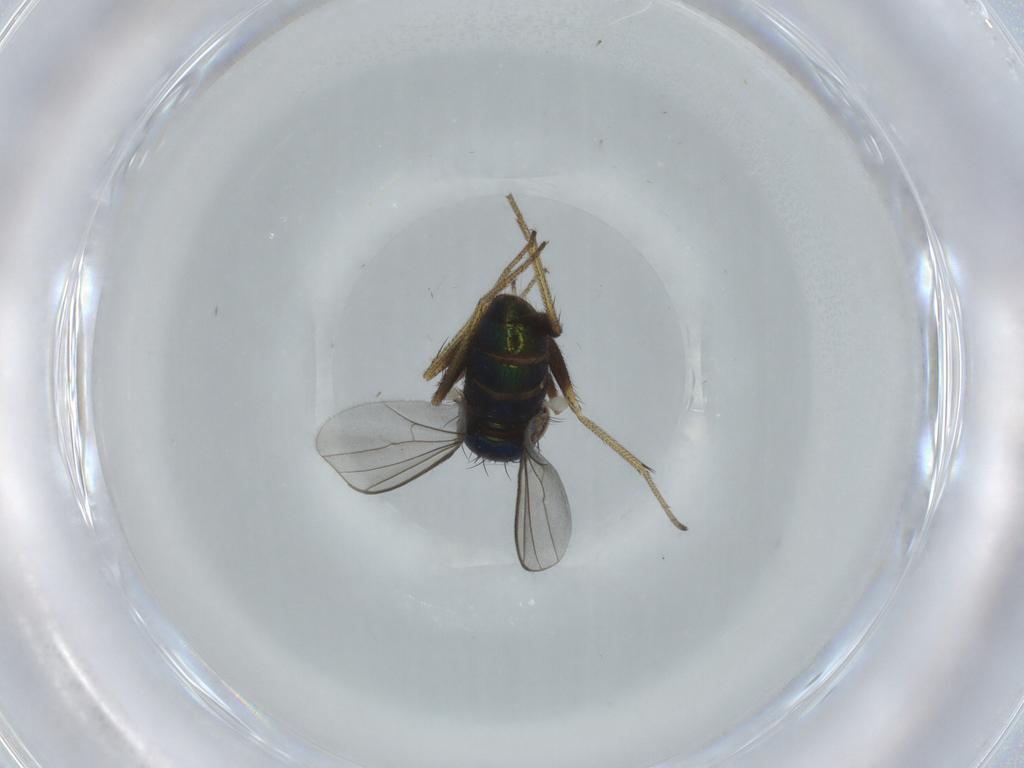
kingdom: Animalia
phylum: Arthropoda
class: Insecta
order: Diptera
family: Dolichopodidae
